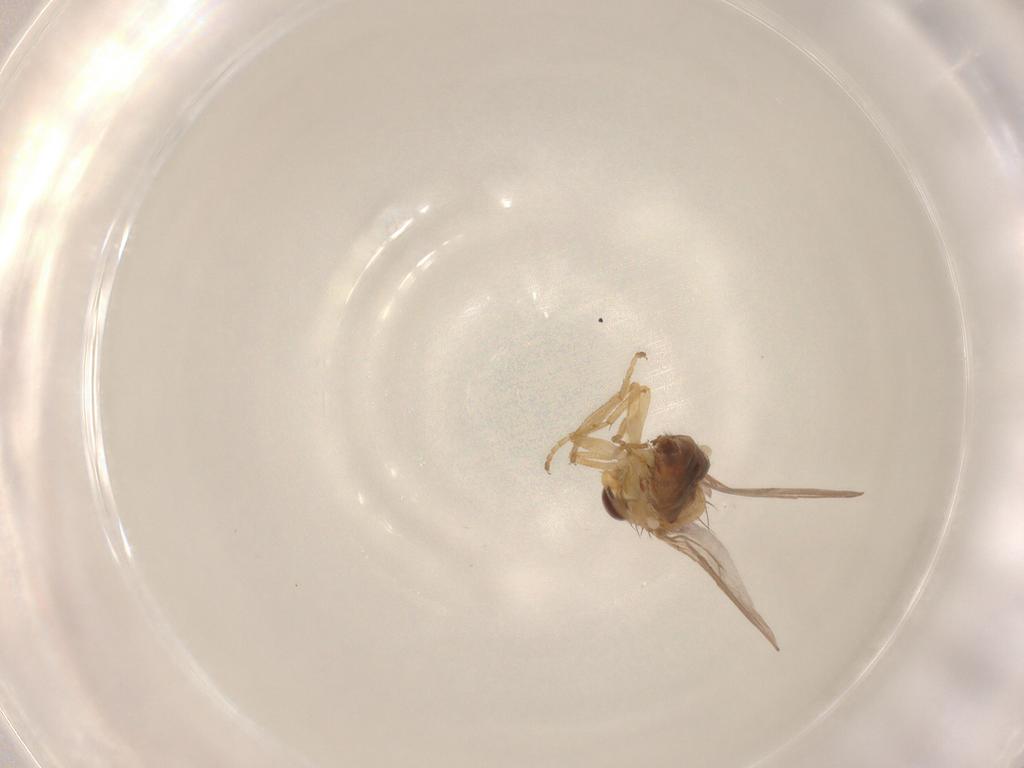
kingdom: Animalia
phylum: Arthropoda
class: Insecta
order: Diptera
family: Chloropidae
